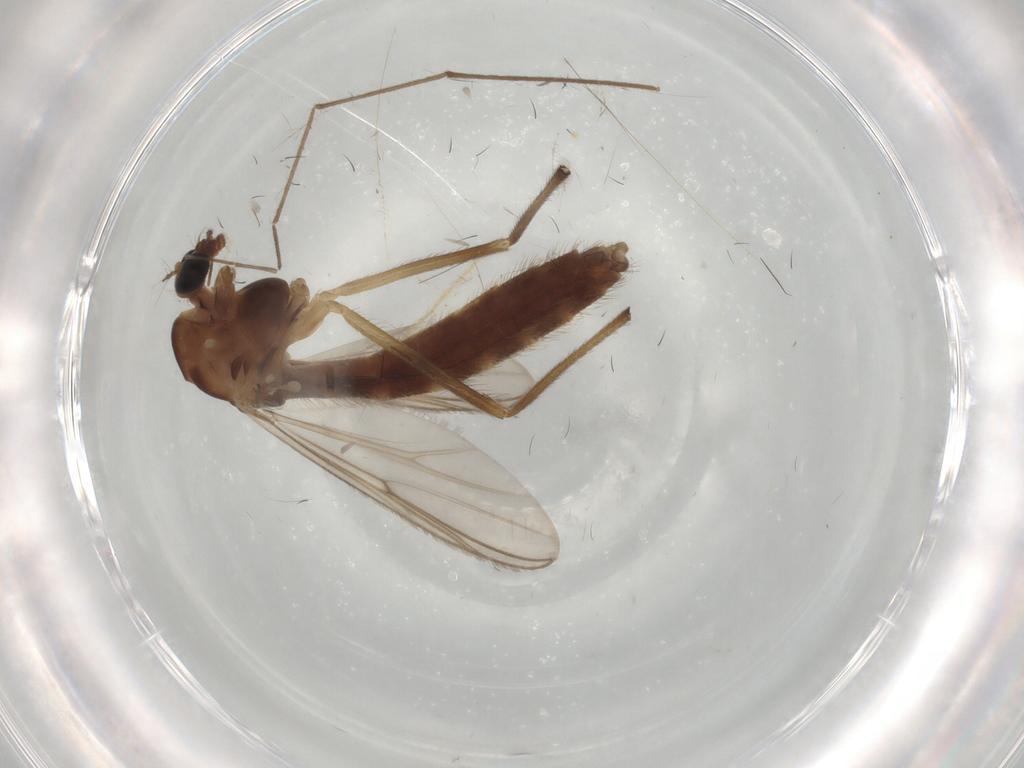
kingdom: Animalia
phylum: Arthropoda
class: Insecta
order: Diptera
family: Chironomidae
